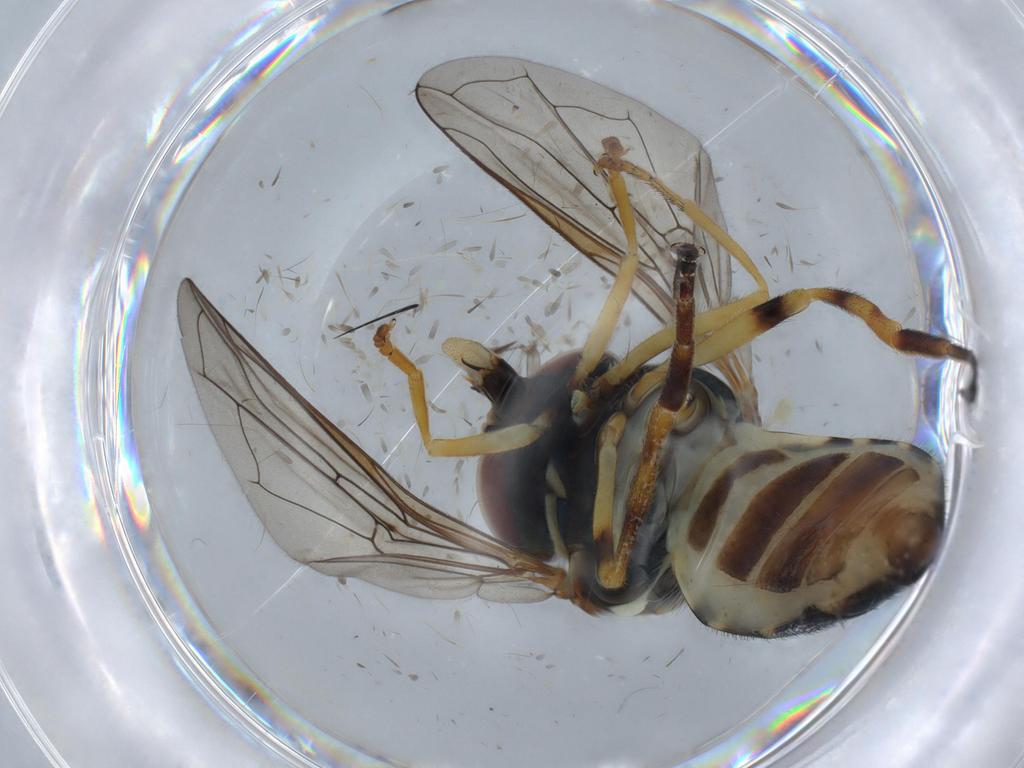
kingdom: Animalia
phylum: Arthropoda
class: Insecta
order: Diptera
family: Syrphidae
